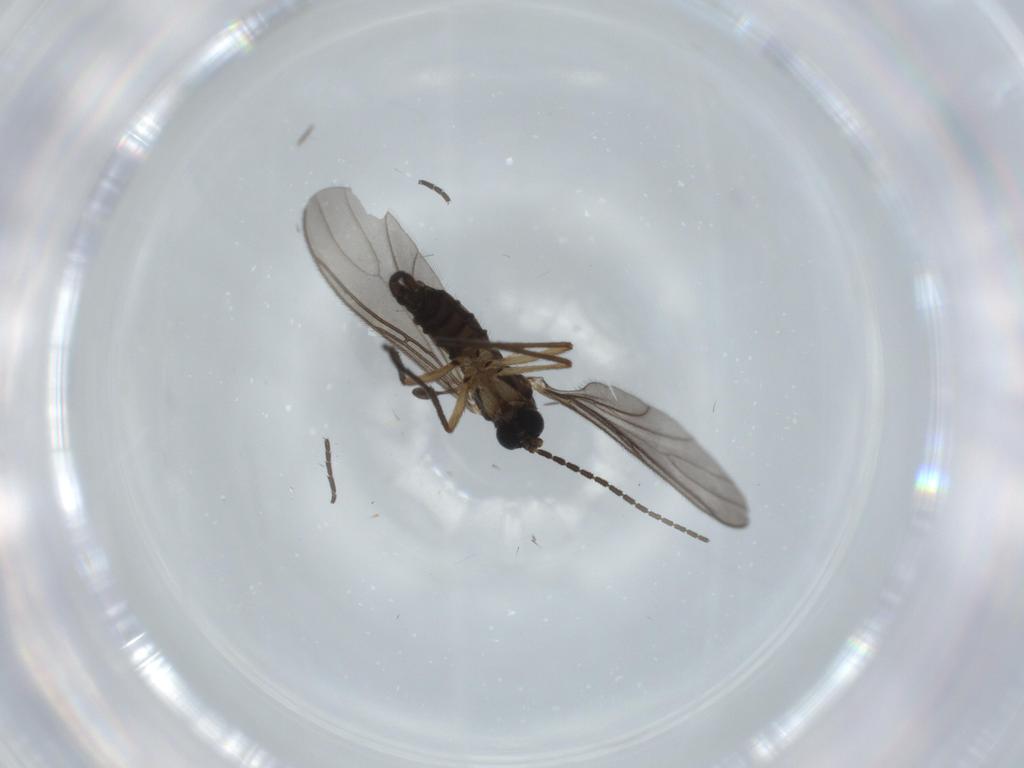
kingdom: Animalia
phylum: Arthropoda
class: Insecta
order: Diptera
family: Sciaridae
